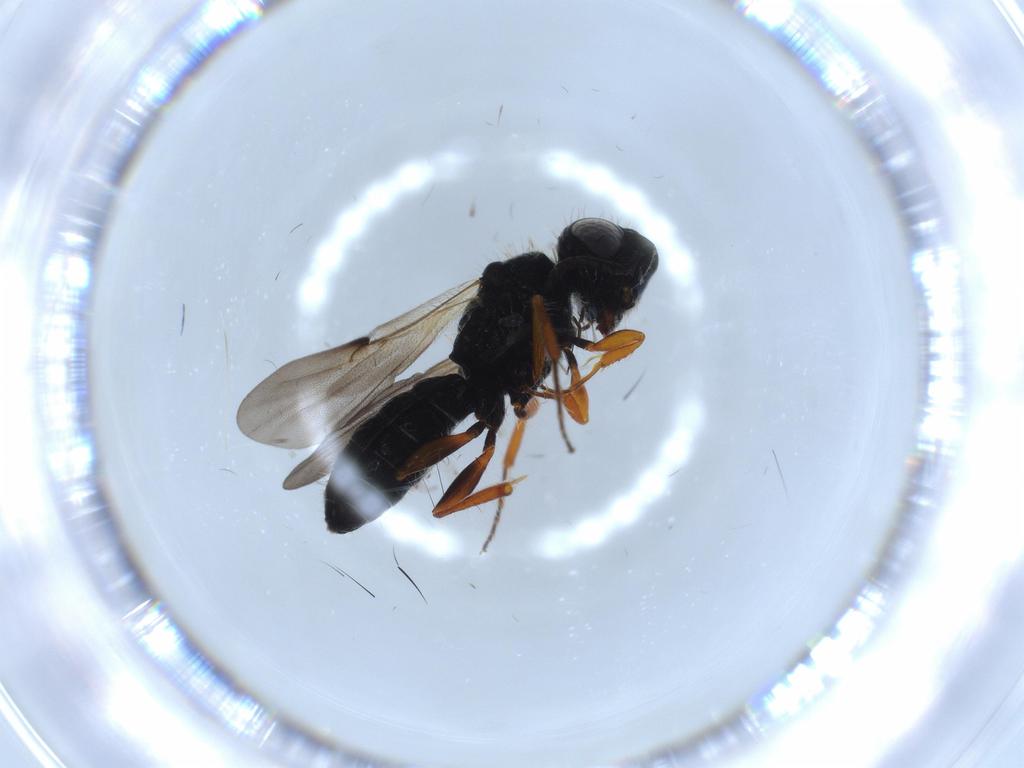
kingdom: Animalia
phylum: Arthropoda
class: Insecta
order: Hymenoptera
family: Scelionidae
